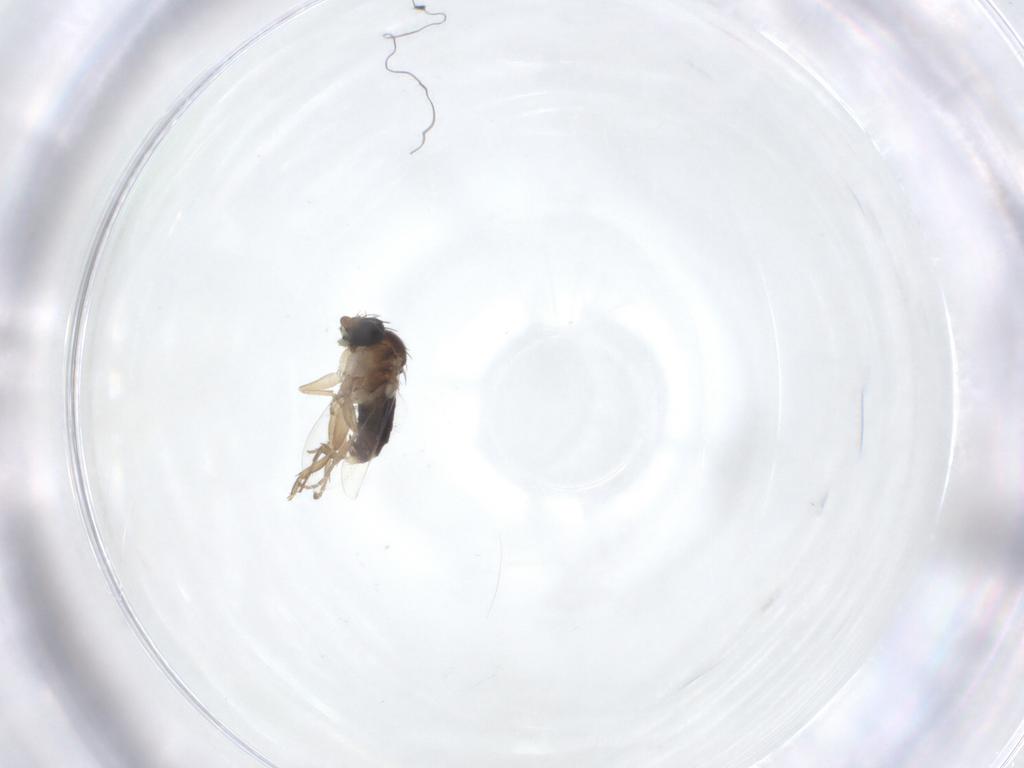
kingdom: Animalia
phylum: Arthropoda
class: Insecta
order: Diptera
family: Phoridae
